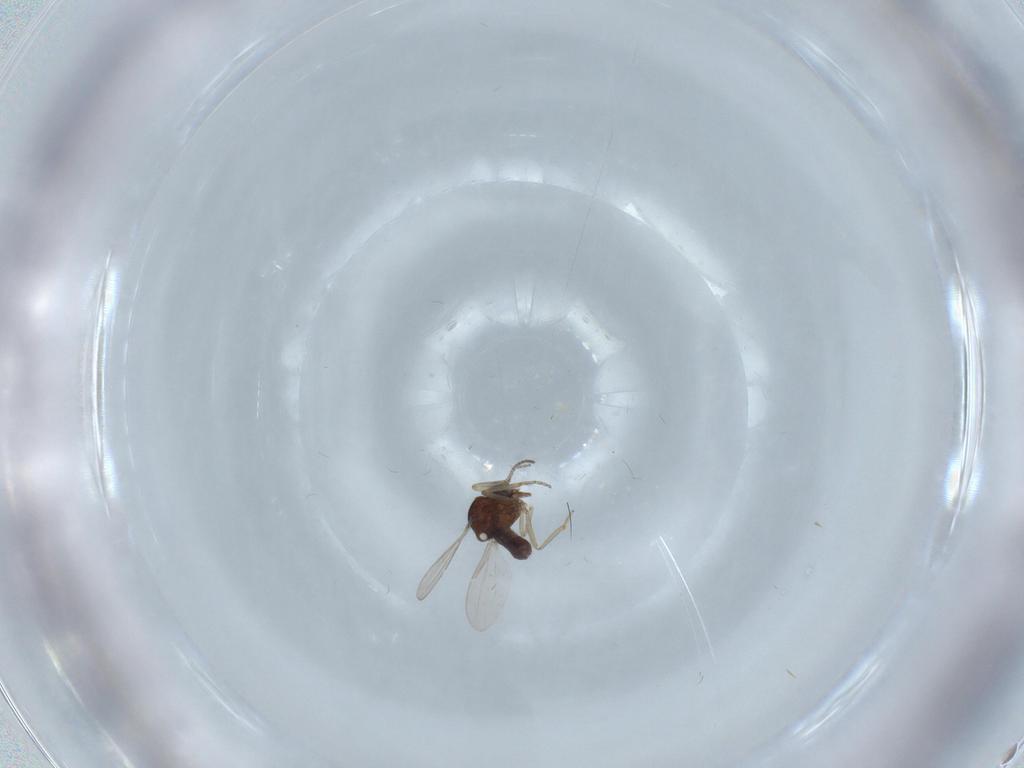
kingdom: Animalia
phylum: Arthropoda
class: Insecta
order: Diptera
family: Ceratopogonidae
